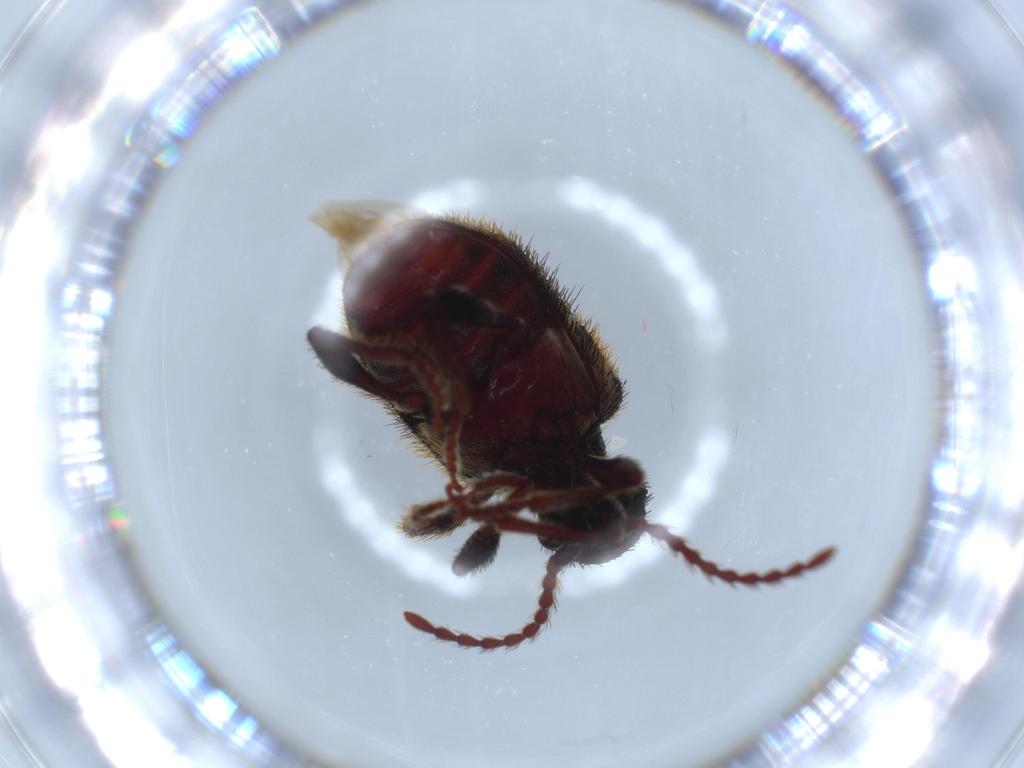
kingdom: Animalia
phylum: Arthropoda
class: Insecta
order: Coleoptera
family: Ptinidae
